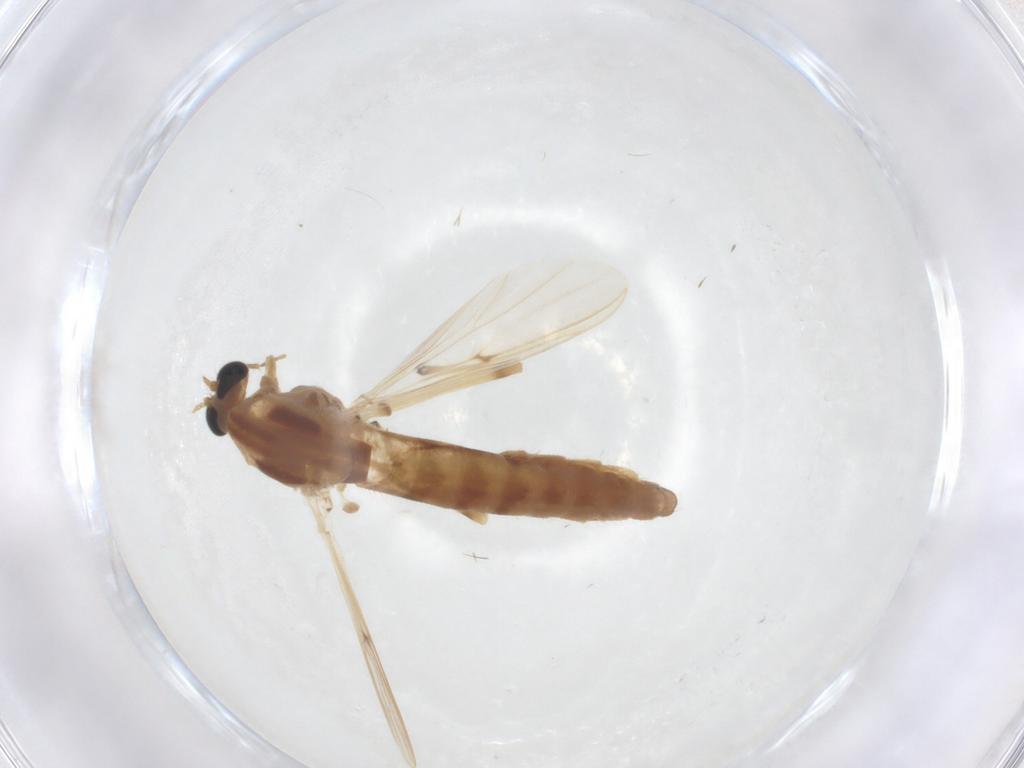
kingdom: Animalia
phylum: Arthropoda
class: Insecta
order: Diptera
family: Chironomidae
